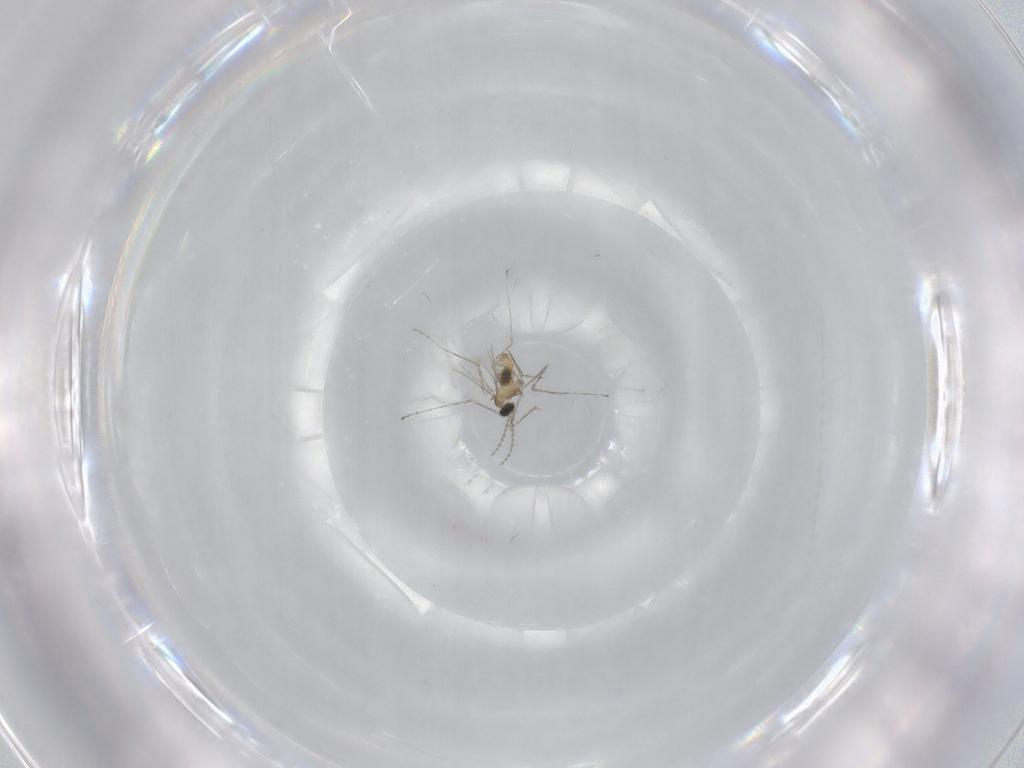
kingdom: Animalia
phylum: Arthropoda
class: Insecta
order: Diptera
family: Cecidomyiidae
